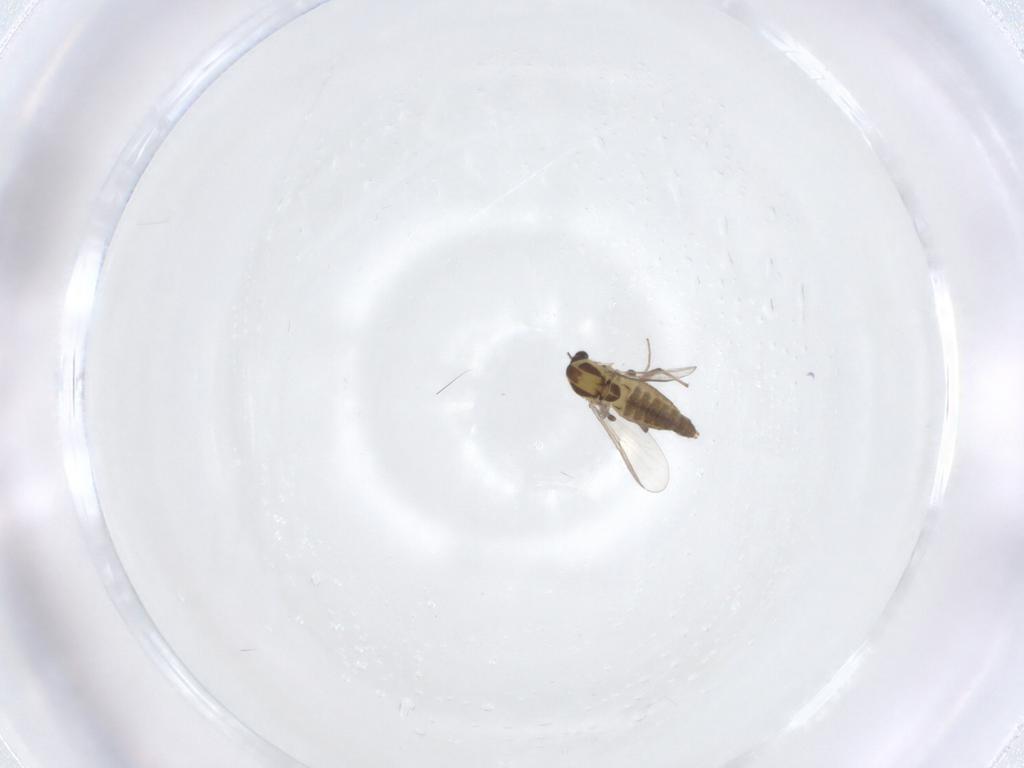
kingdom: Animalia
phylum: Arthropoda
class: Insecta
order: Diptera
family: Chironomidae
